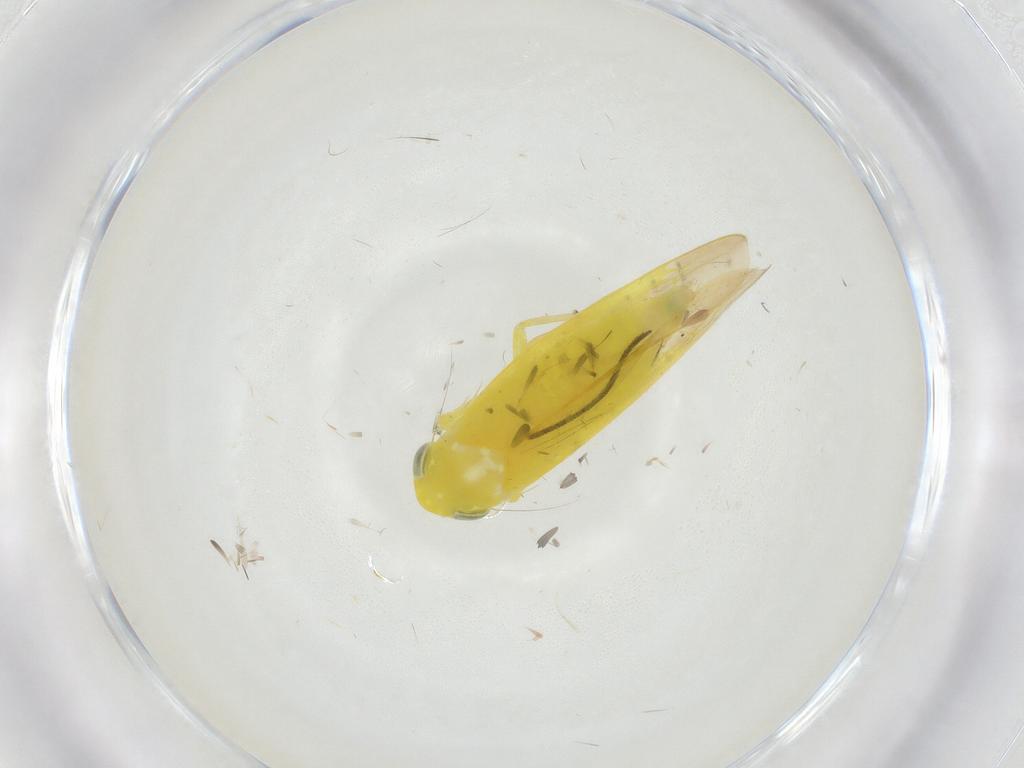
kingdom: Animalia
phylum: Arthropoda
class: Insecta
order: Hemiptera
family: Cicadellidae
